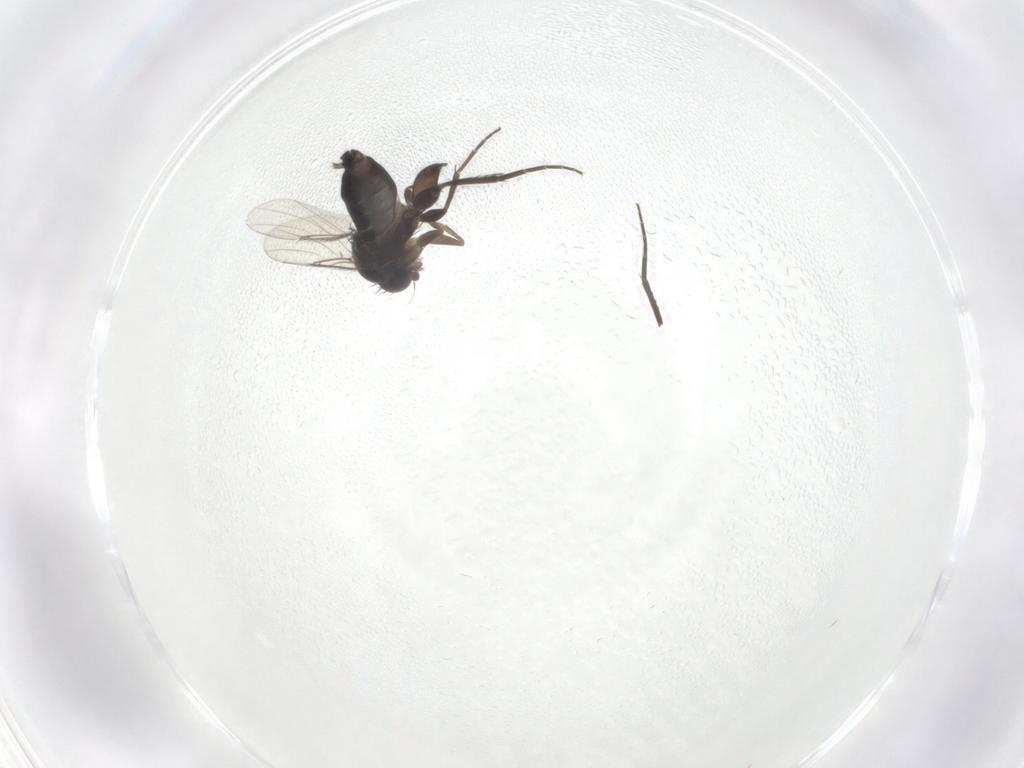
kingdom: Animalia
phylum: Arthropoda
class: Insecta
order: Diptera
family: Phoridae
